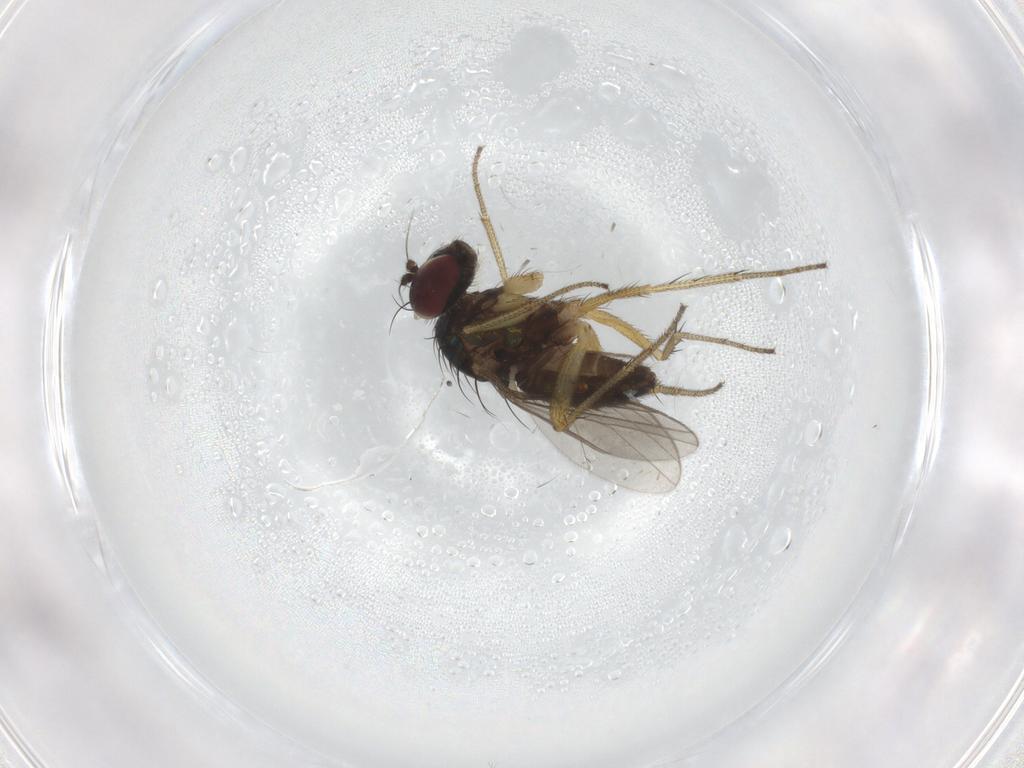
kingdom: Animalia
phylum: Arthropoda
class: Insecta
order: Diptera
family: Dolichopodidae
